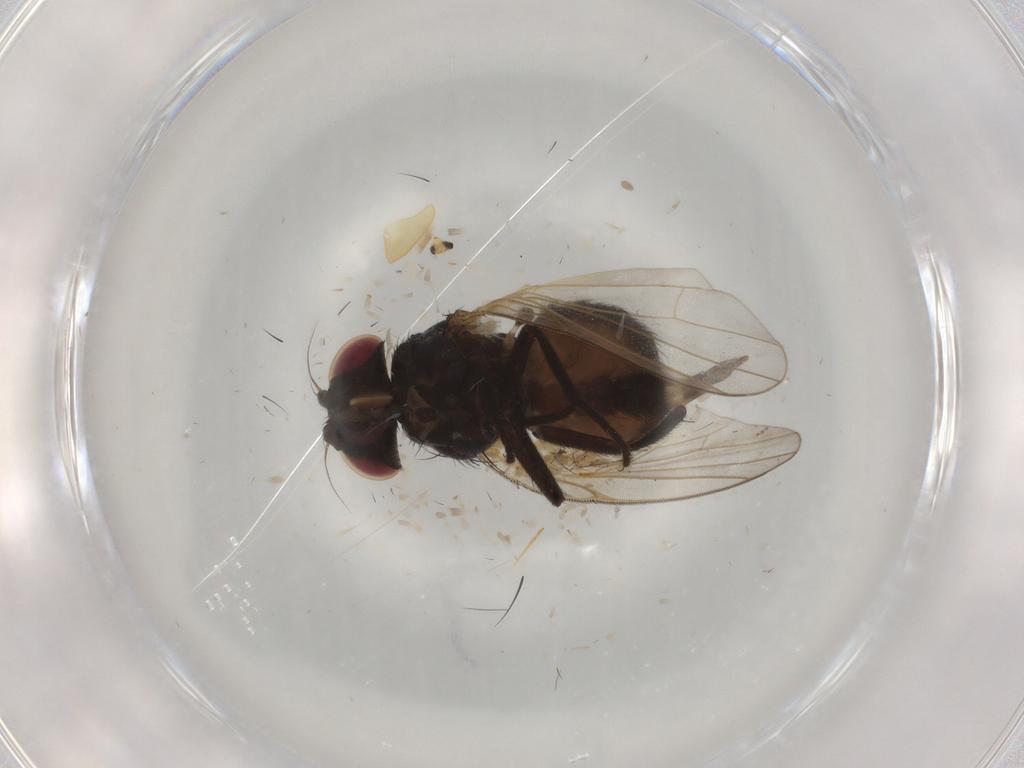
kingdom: Animalia
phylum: Arthropoda
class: Insecta
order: Diptera
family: Lonchaeidae
